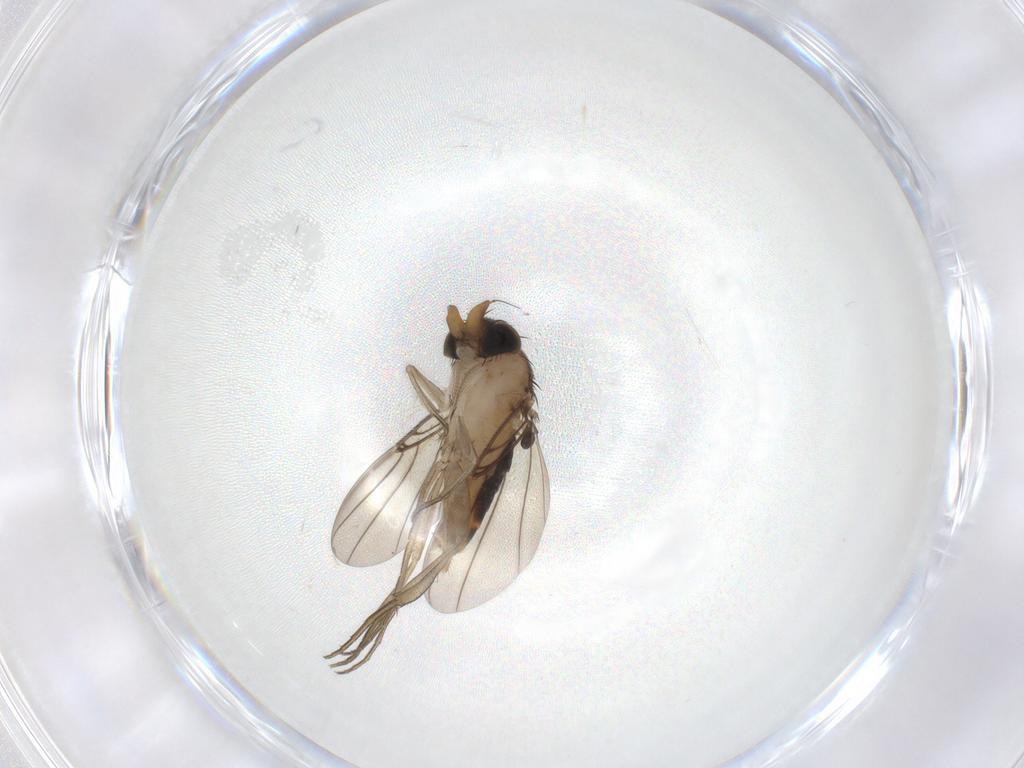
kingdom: Animalia
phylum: Arthropoda
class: Insecta
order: Diptera
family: Phoridae
